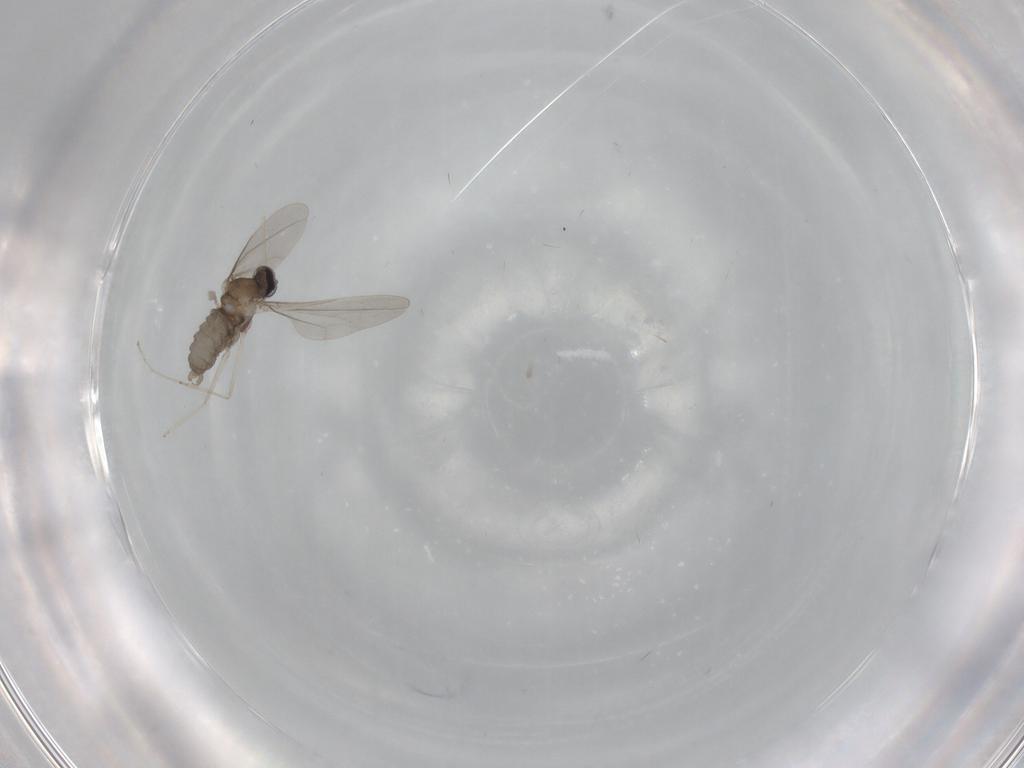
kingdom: Animalia
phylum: Arthropoda
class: Insecta
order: Diptera
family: Cecidomyiidae
